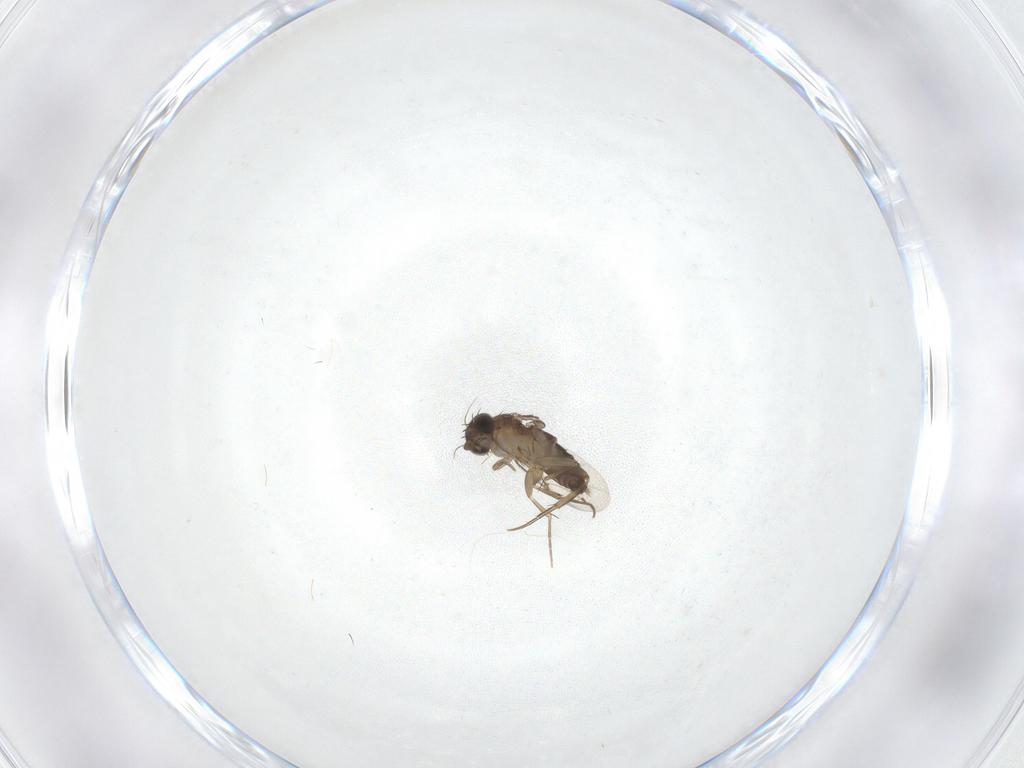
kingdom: Animalia
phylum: Arthropoda
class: Insecta
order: Diptera
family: Phoridae
